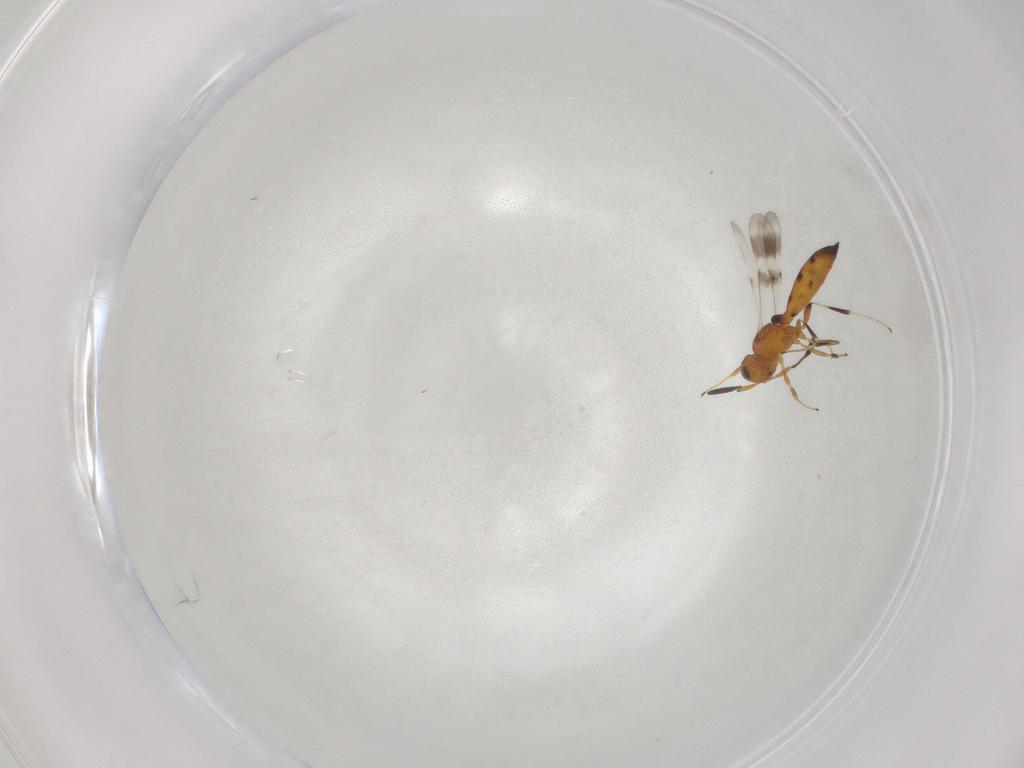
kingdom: Animalia
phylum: Arthropoda
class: Insecta
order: Hymenoptera
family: Scelionidae
